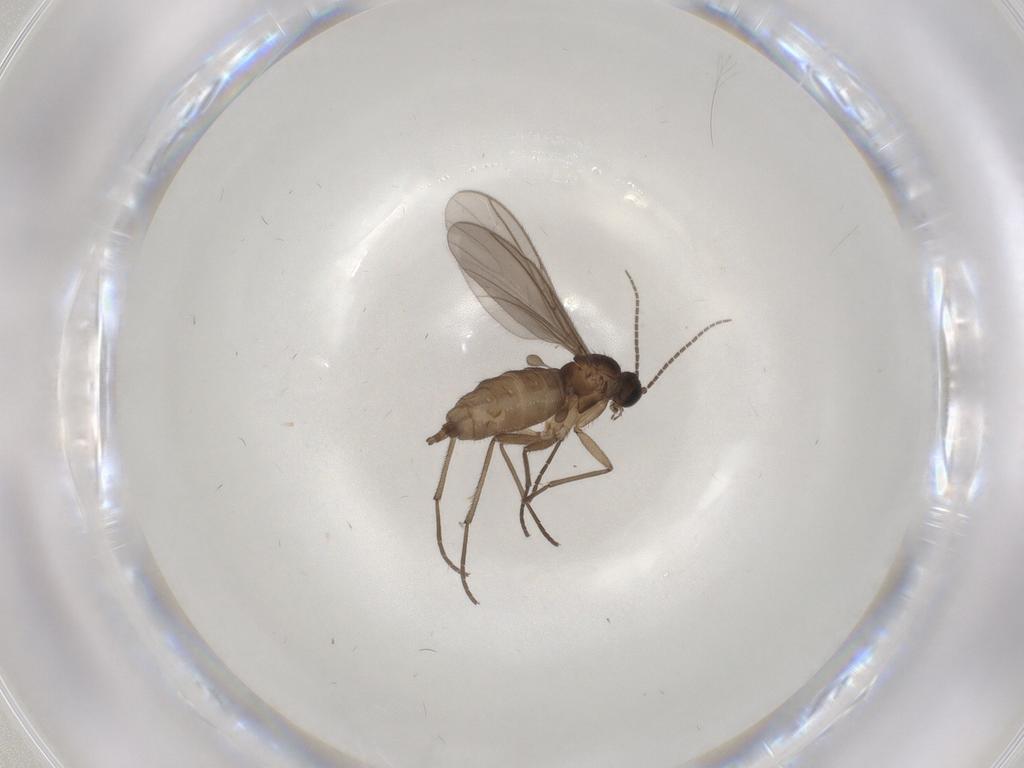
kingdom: Animalia
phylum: Arthropoda
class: Insecta
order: Diptera
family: Sciaridae
